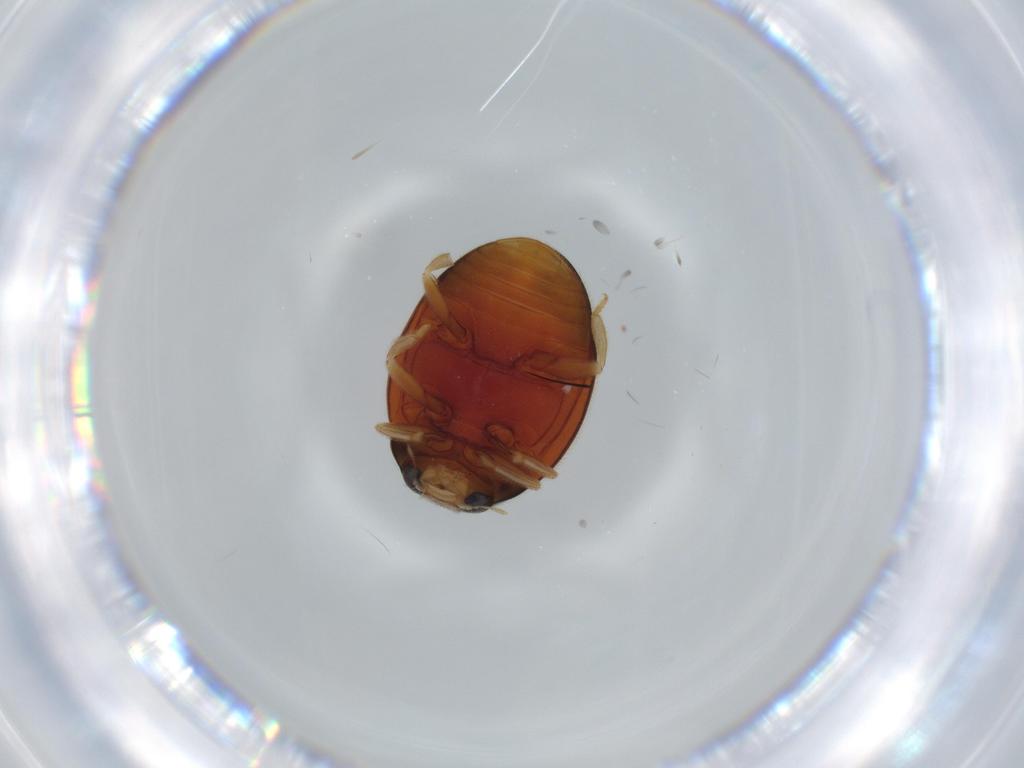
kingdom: Animalia
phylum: Arthropoda
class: Insecta
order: Coleoptera
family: Coccinellidae
